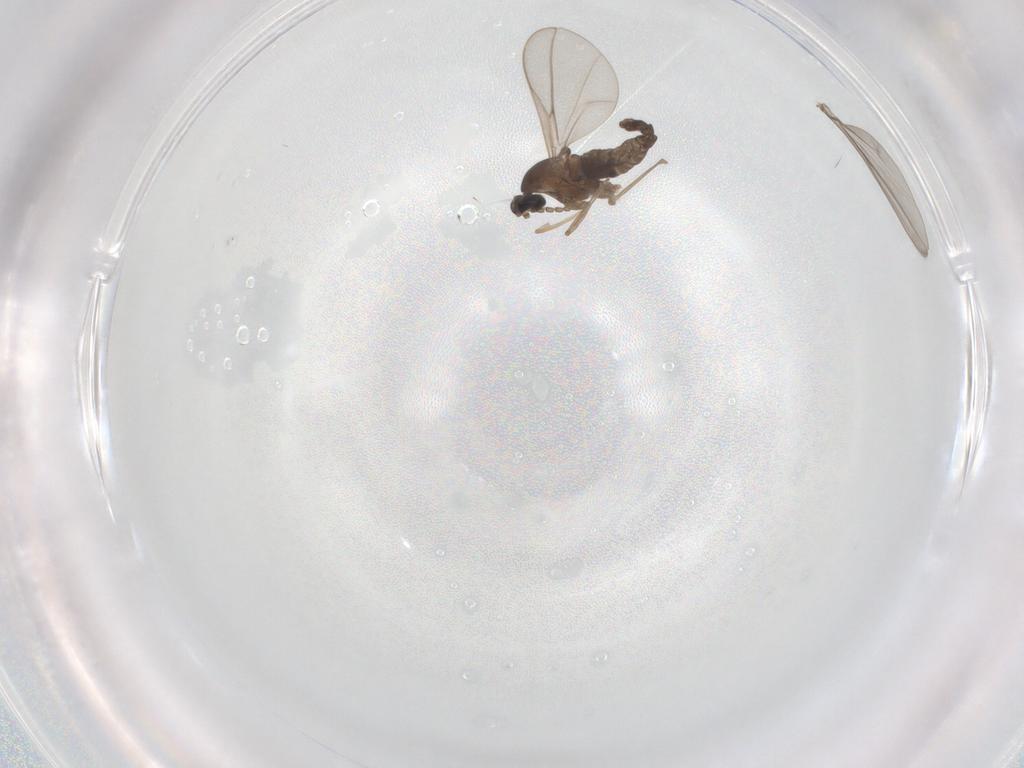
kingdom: Animalia
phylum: Arthropoda
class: Insecta
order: Diptera
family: Cecidomyiidae
